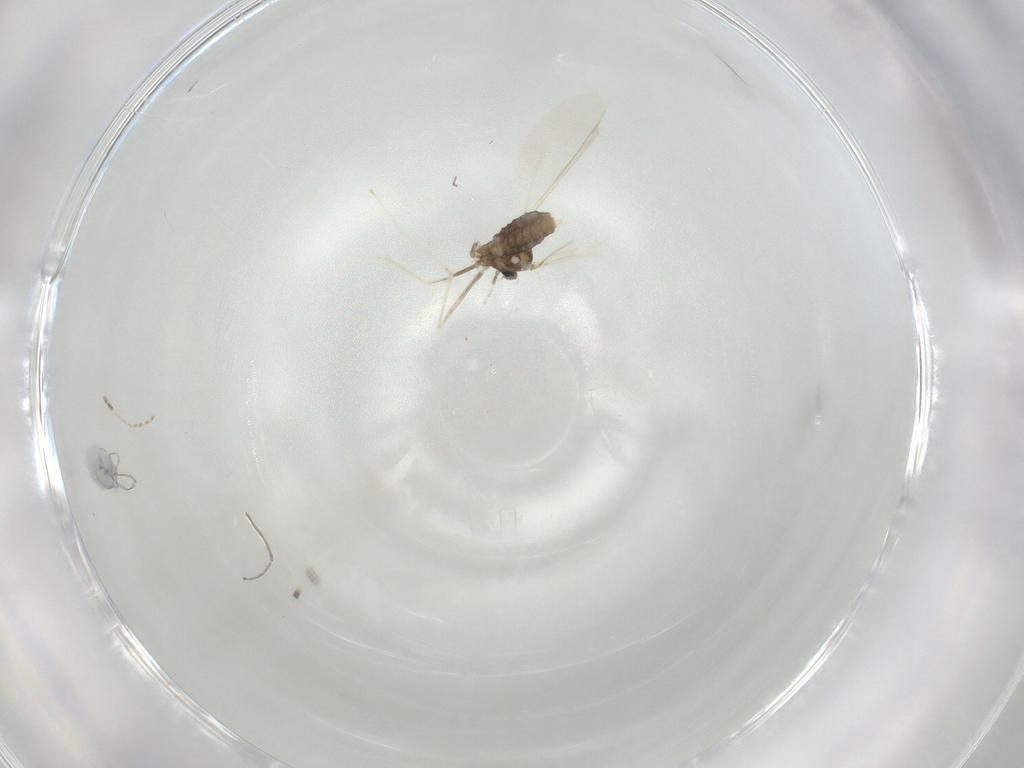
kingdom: Animalia
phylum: Arthropoda
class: Insecta
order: Diptera
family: Cecidomyiidae
